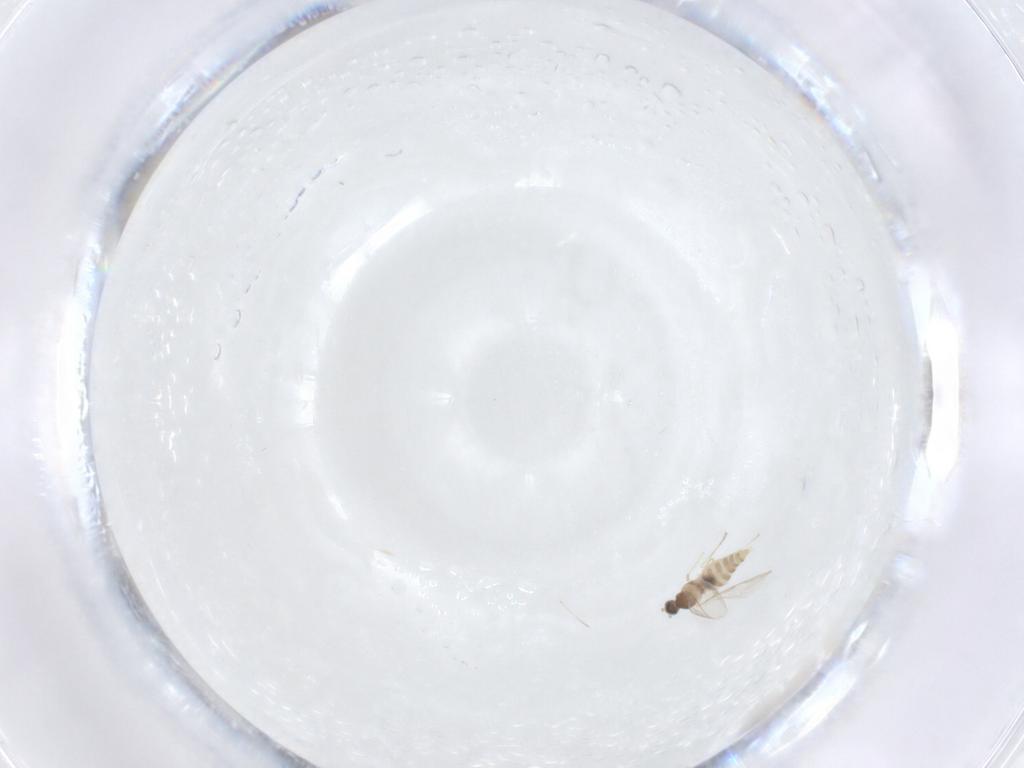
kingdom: Animalia
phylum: Arthropoda
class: Insecta
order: Diptera
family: Cecidomyiidae
